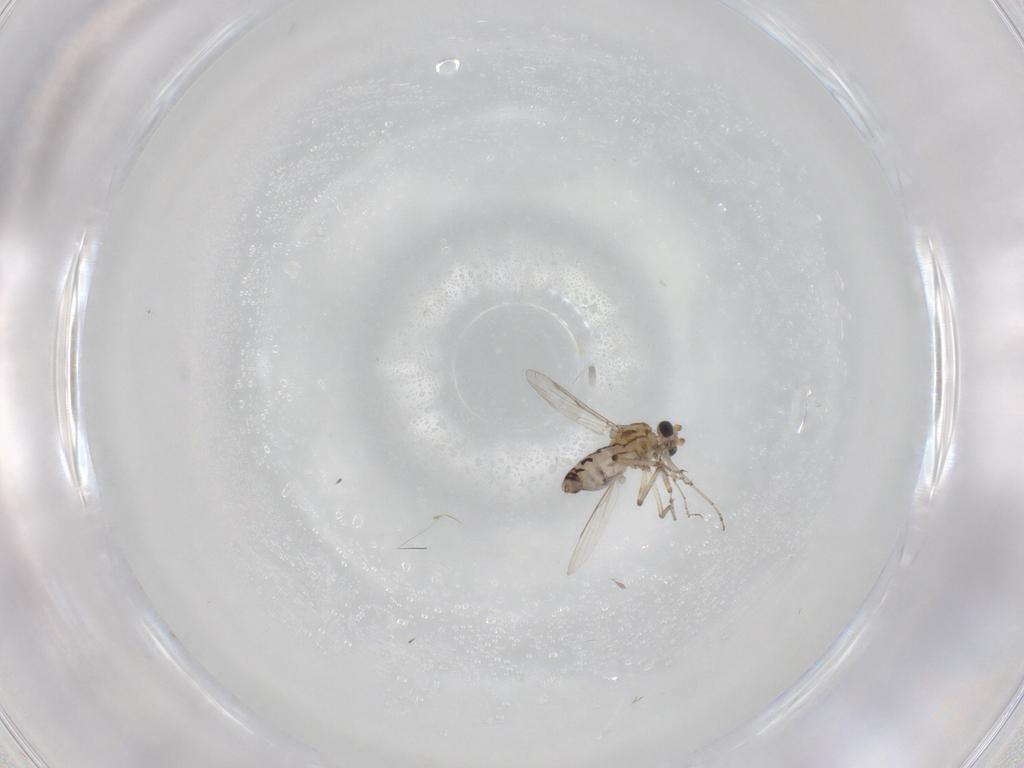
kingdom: Animalia
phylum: Arthropoda
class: Insecta
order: Diptera
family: Ceratopogonidae
